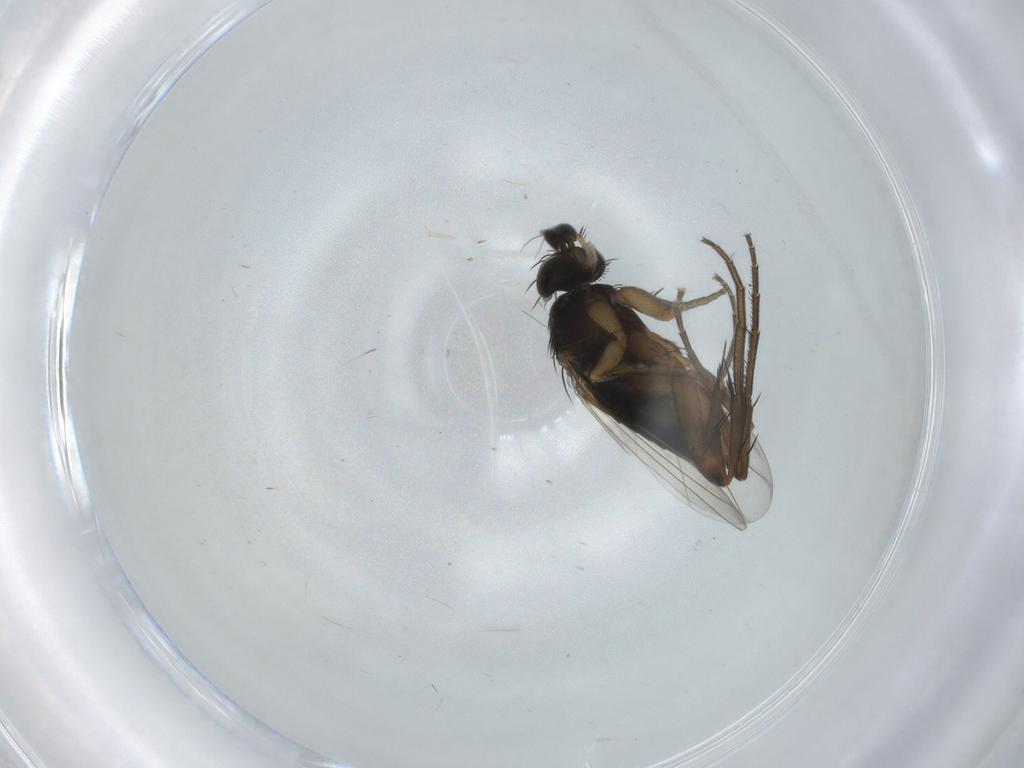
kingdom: Animalia
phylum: Arthropoda
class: Insecta
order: Diptera
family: Phoridae
